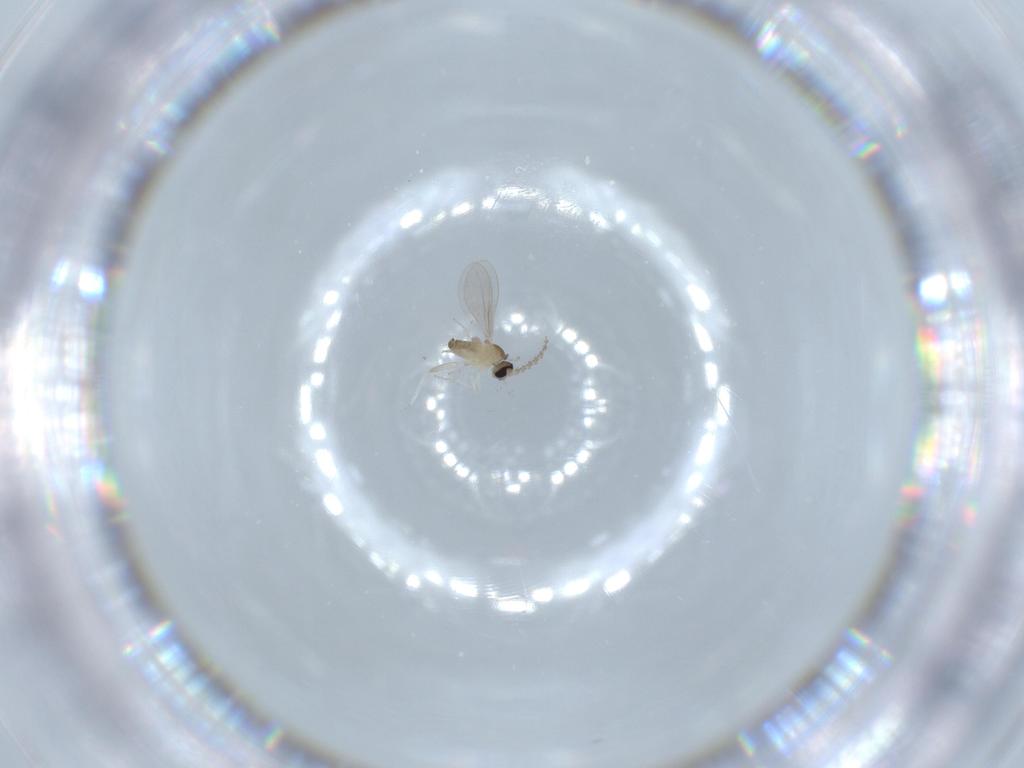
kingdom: Animalia
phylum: Arthropoda
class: Insecta
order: Diptera
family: Cecidomyiidae
